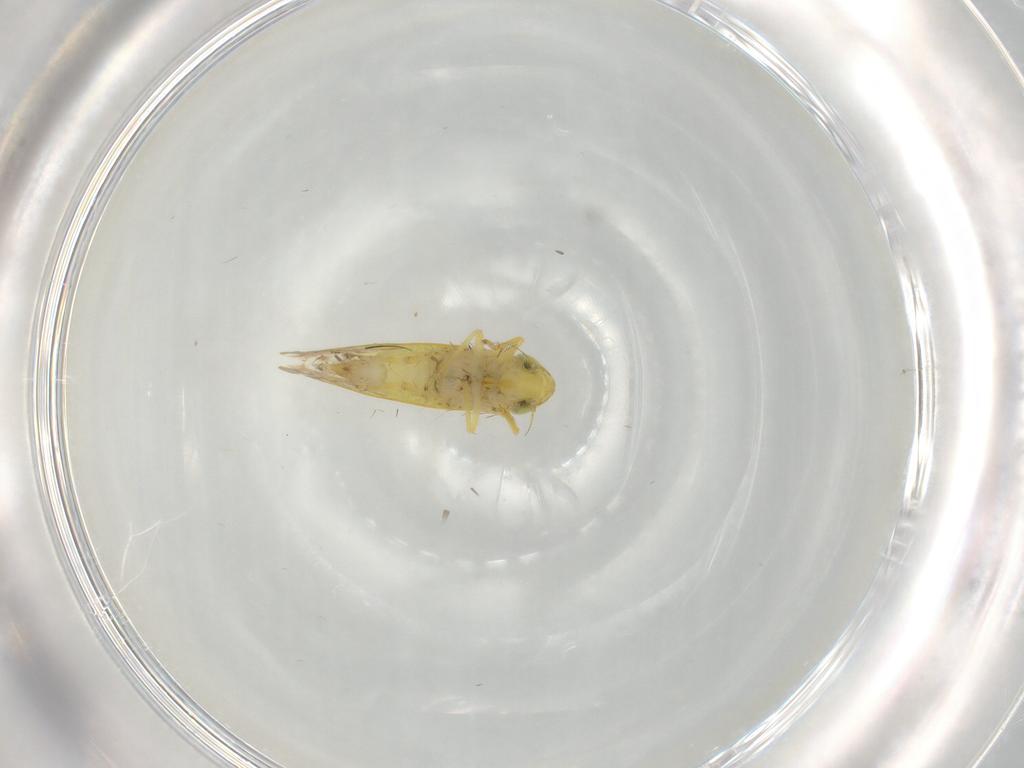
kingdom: Animalia
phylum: Arthropoda
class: Insecta
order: Hemiptera
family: Cicadellidae
